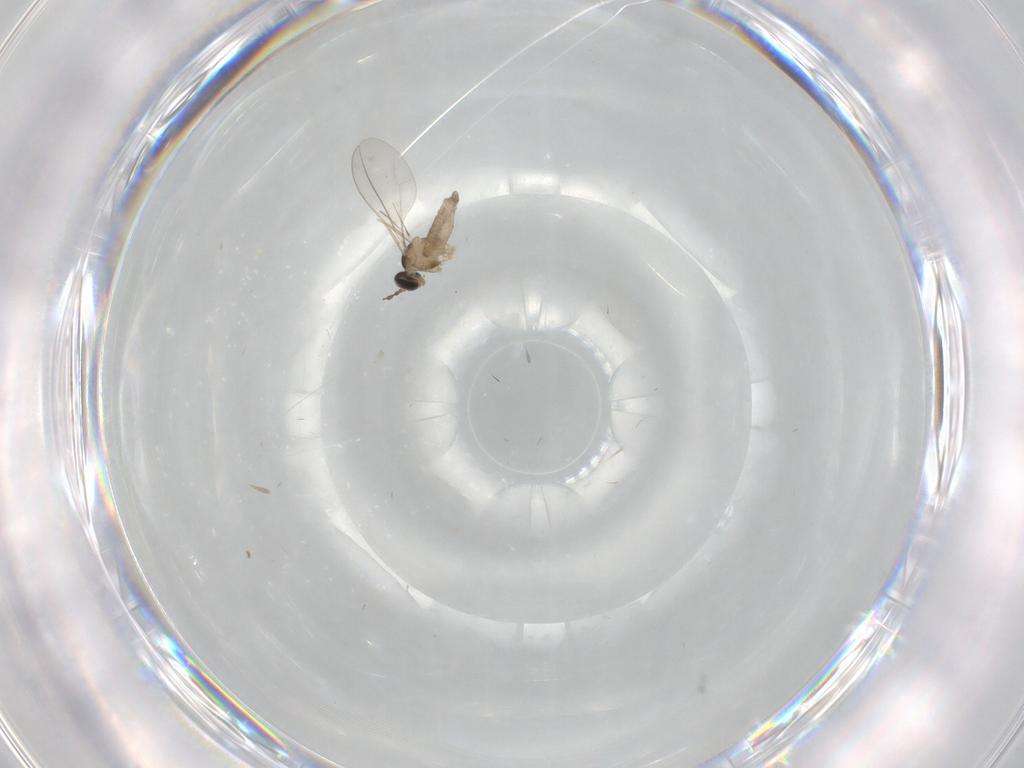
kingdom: Animalia
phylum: Arthropoda
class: Insecta
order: Diptera
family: Cecidomyiidae
